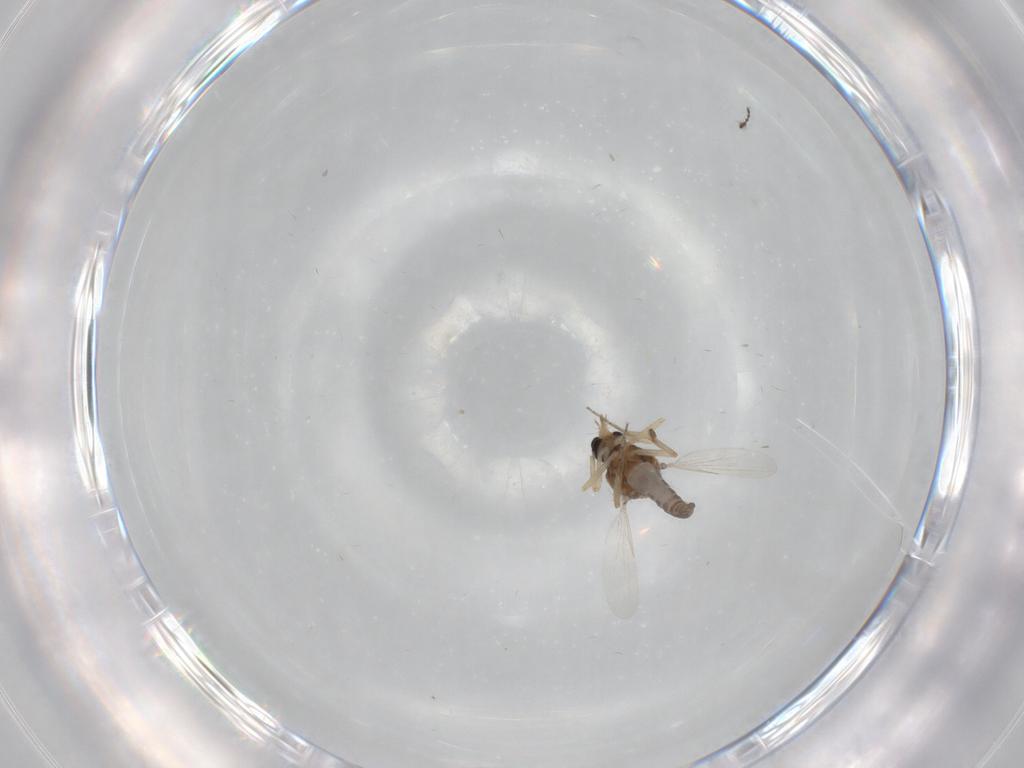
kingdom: Animalia
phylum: Arthropoda
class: Insecta
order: Diptera
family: Ceratopogonidae
